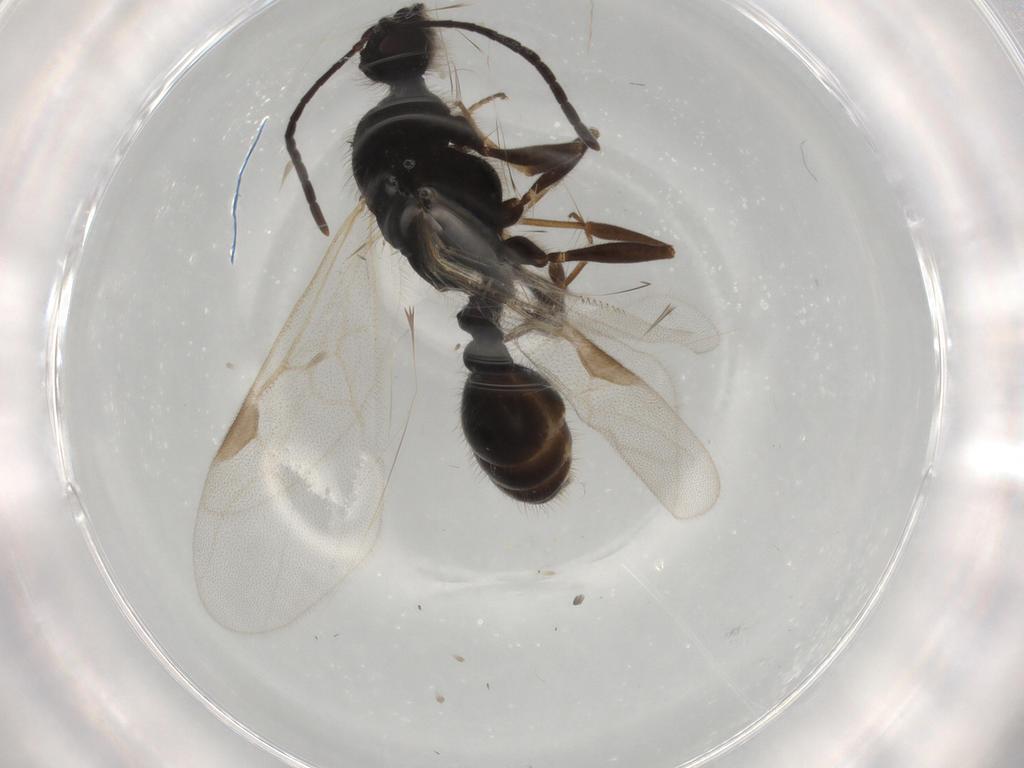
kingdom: Animalia
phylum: Arthropoda
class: Insecta
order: Hymenoptera
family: Formicidae
